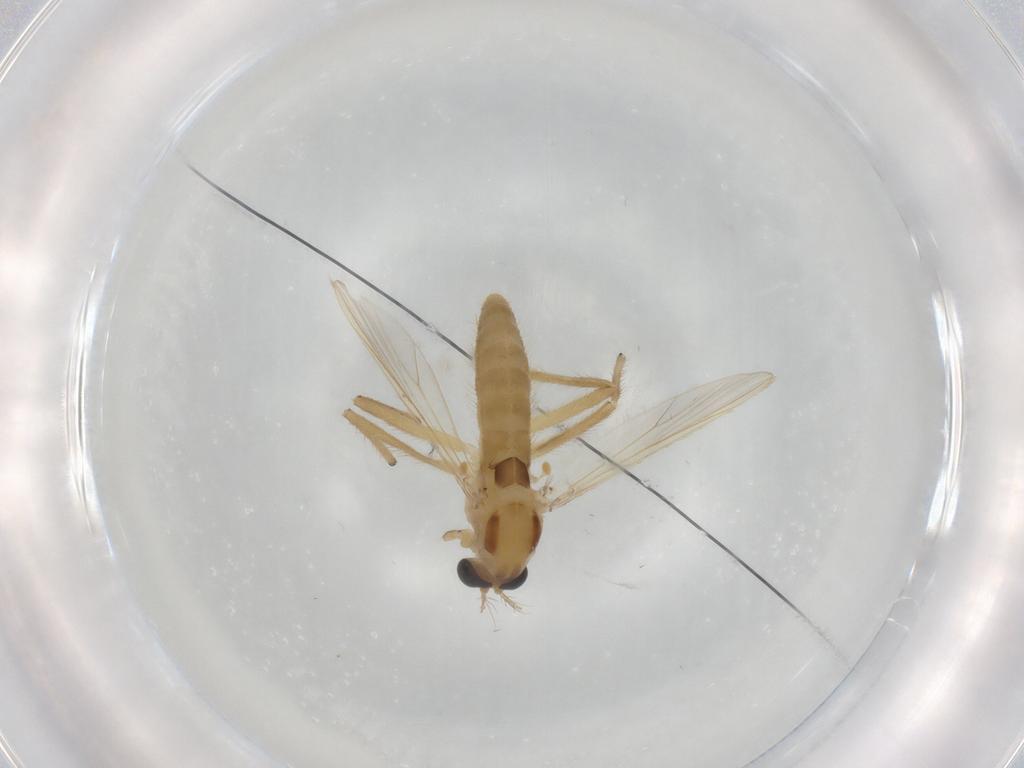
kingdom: Animalia
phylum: Arthropoda
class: Insecta
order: Diptera
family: Chironomidae
